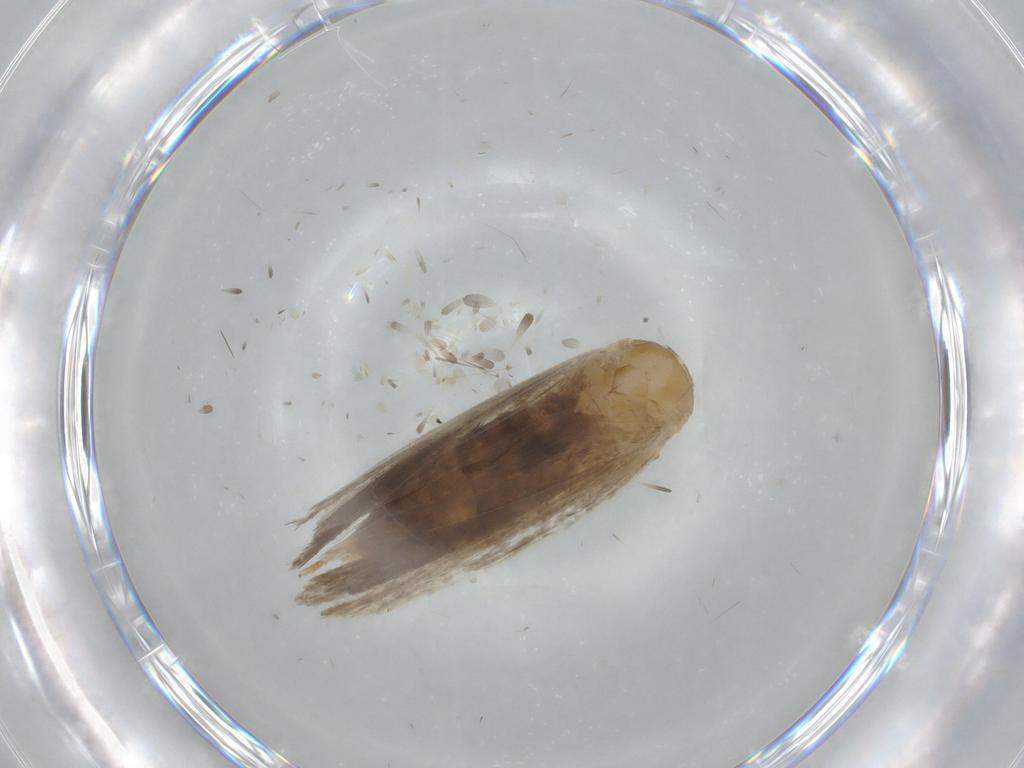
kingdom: Animalia
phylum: Arthropoda
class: Insecta
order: Lepidoptera
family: Gelechiidae
